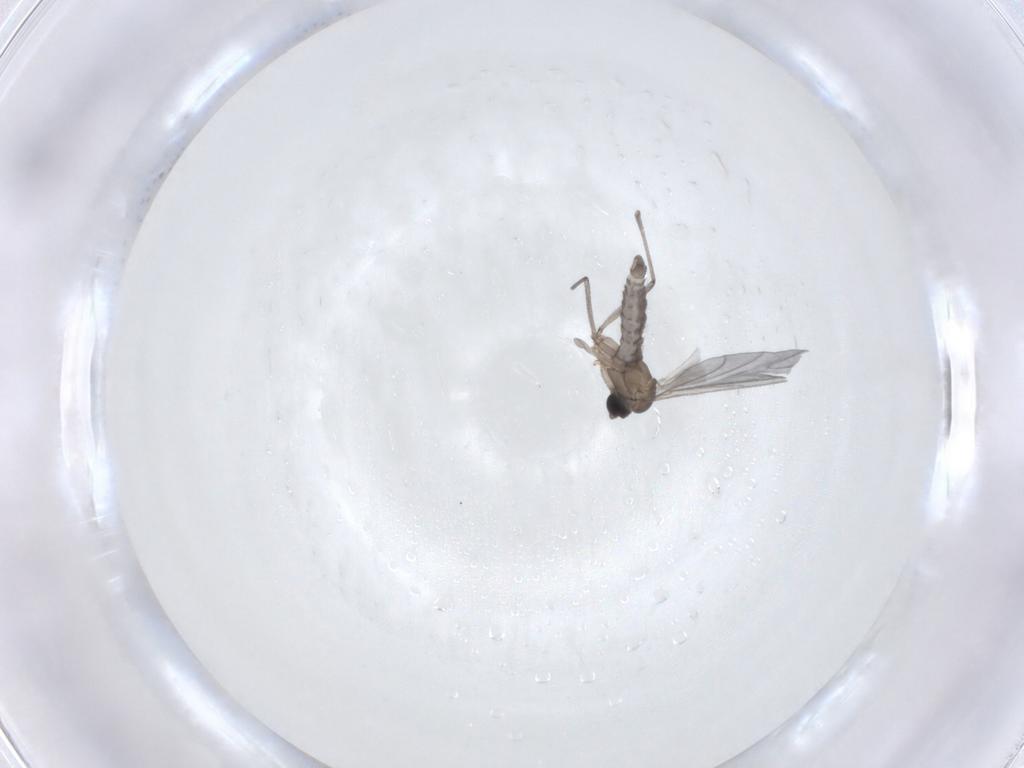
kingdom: Animalia
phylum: Arthropoda
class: Insecta
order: Diptera
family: Sciaridae
